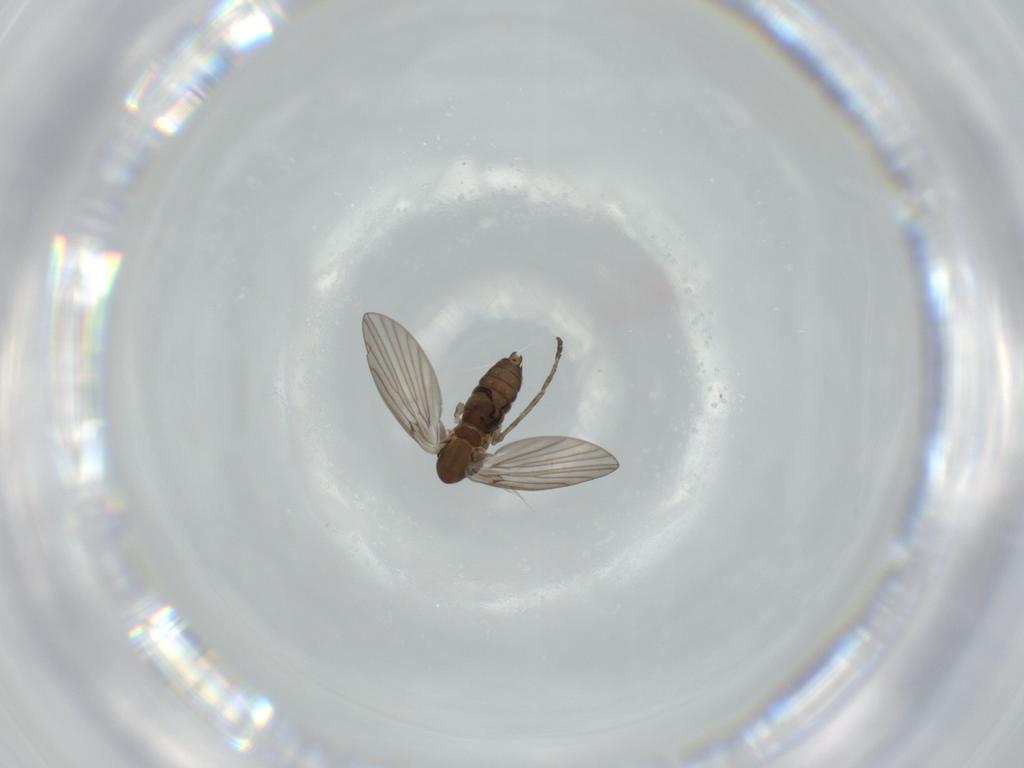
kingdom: Animalia
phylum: Arthropoda
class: Insecta
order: Diptera
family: Psychodidae
